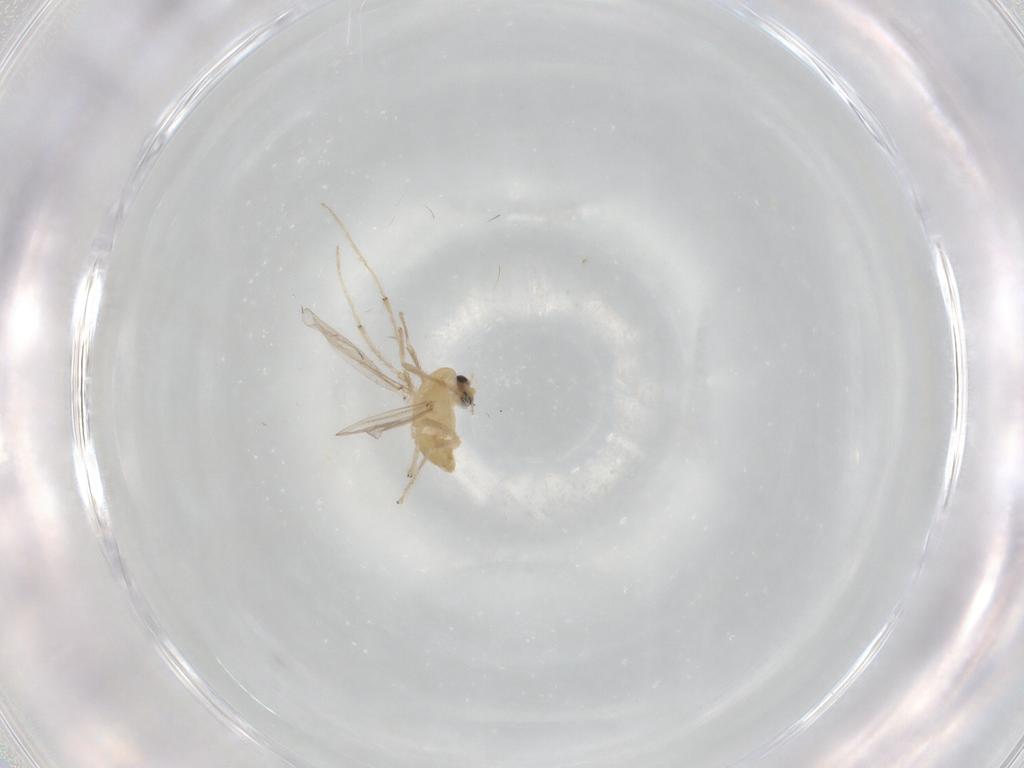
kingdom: Animalia
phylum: Arthropoda
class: Insecta
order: Diptera
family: Chironomidae
